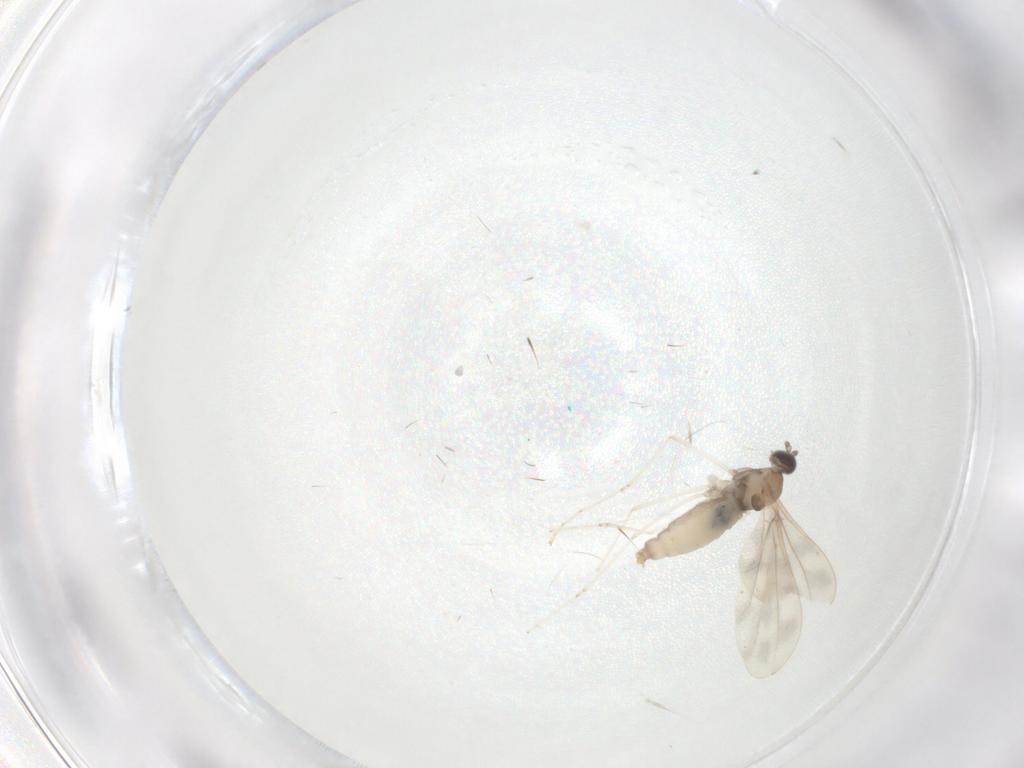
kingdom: Animalia
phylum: Arthropoda
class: Insecta
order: Diptera
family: Cecidomyiidae
